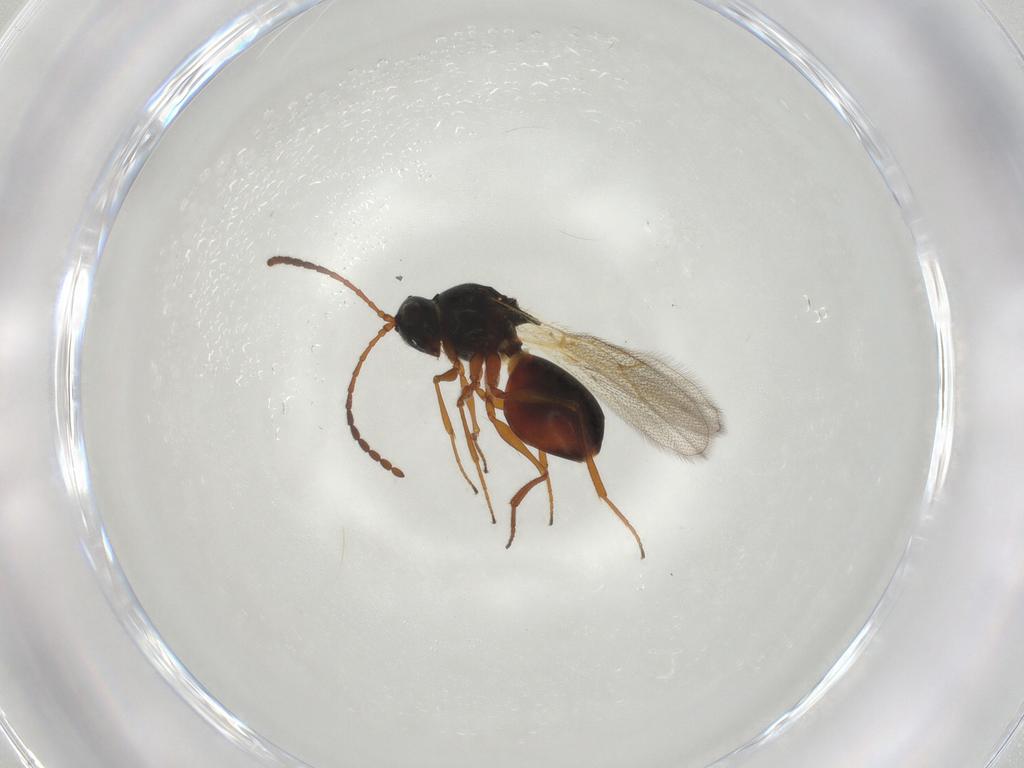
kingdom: Animalia
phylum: Arthropoda
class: Insecta
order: Hymenoptera
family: Figitidae
